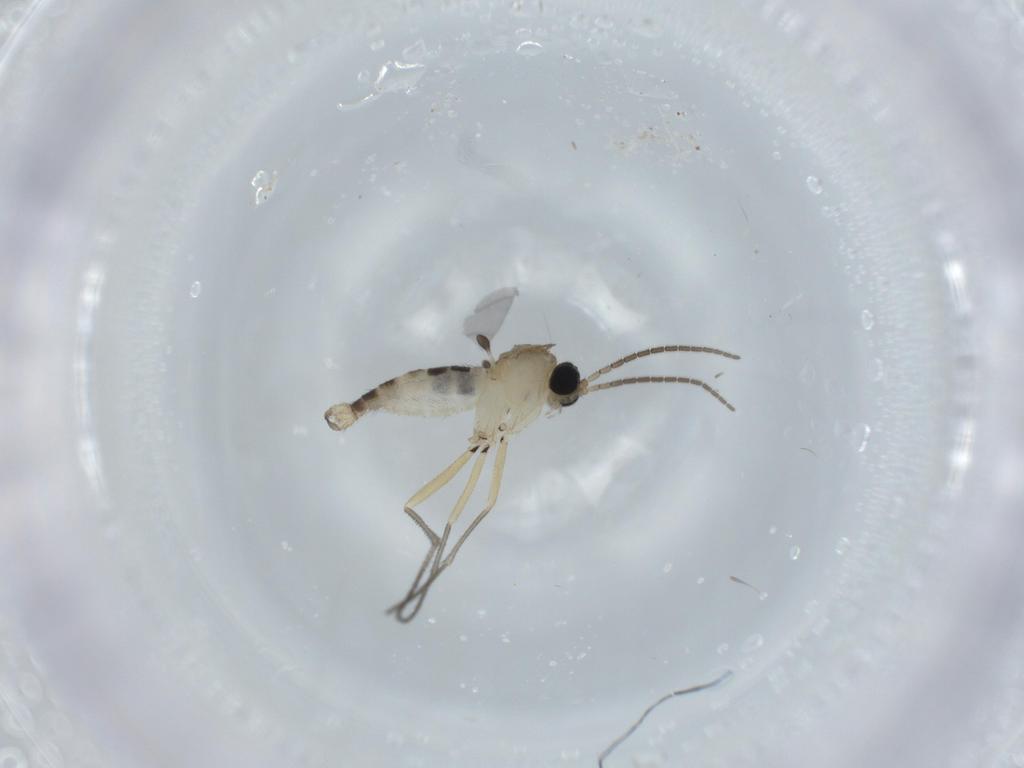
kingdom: Animalia
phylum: Arthropoda
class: Insecta
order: Diptera
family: Sciaridae
